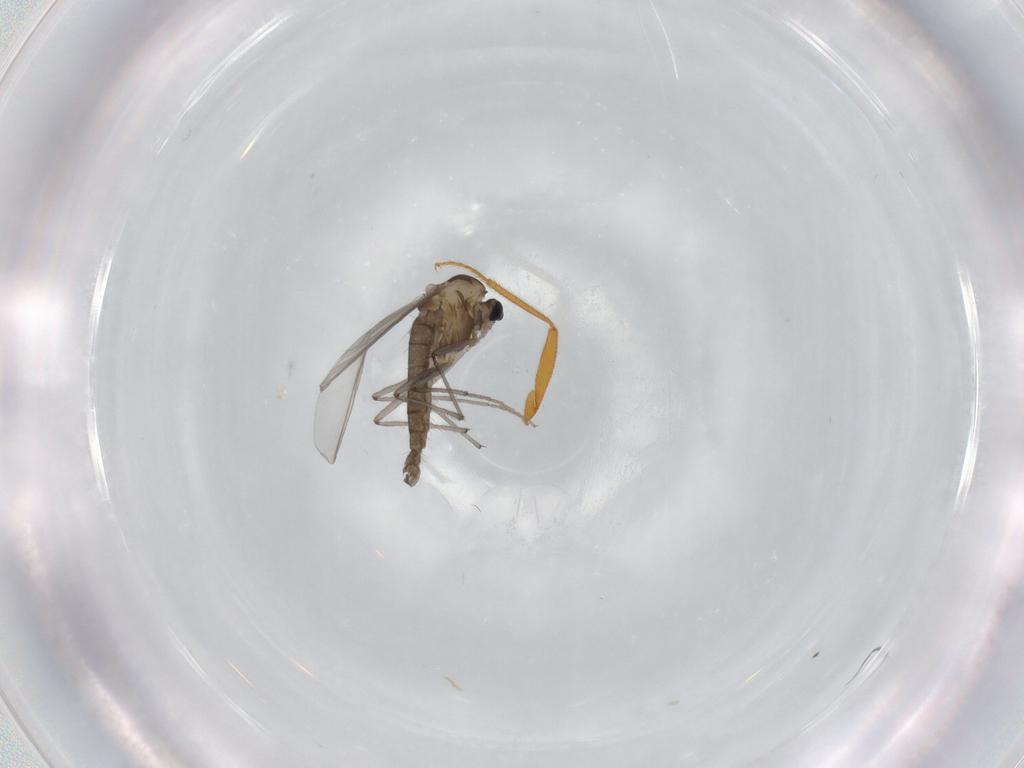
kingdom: Animalia
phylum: Arthropoda
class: Insecta
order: Diptera
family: Chironomidae
